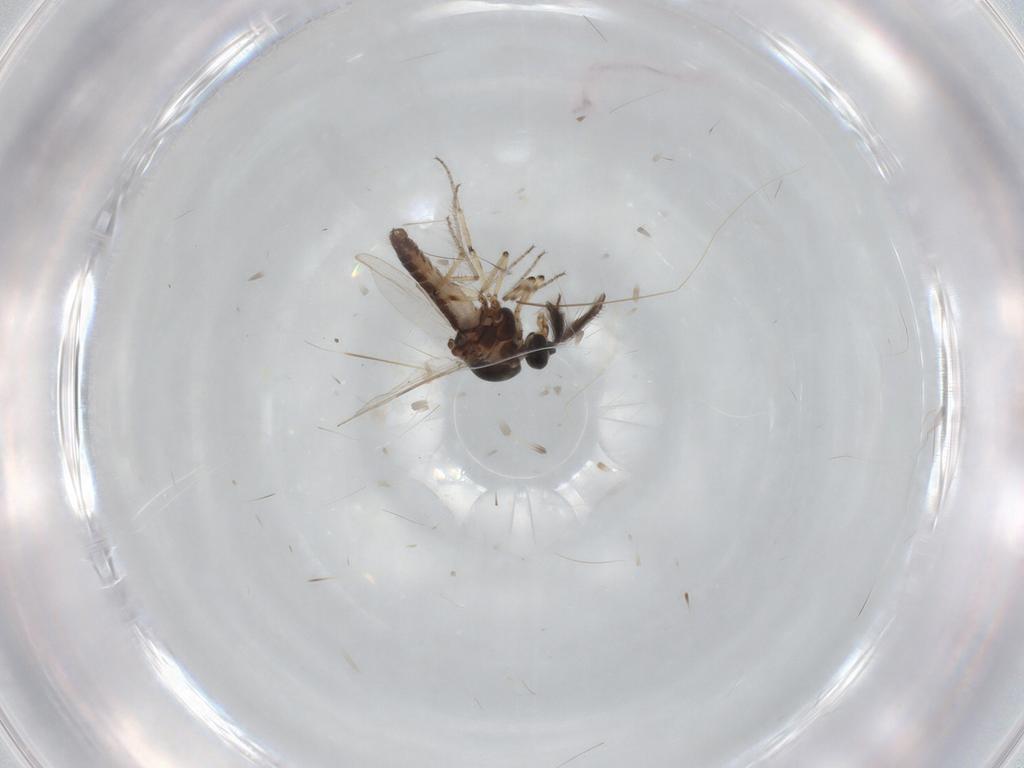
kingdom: Animalia
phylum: Arthropoda
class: Insecta
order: Diptera
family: Ceratopogonidae
